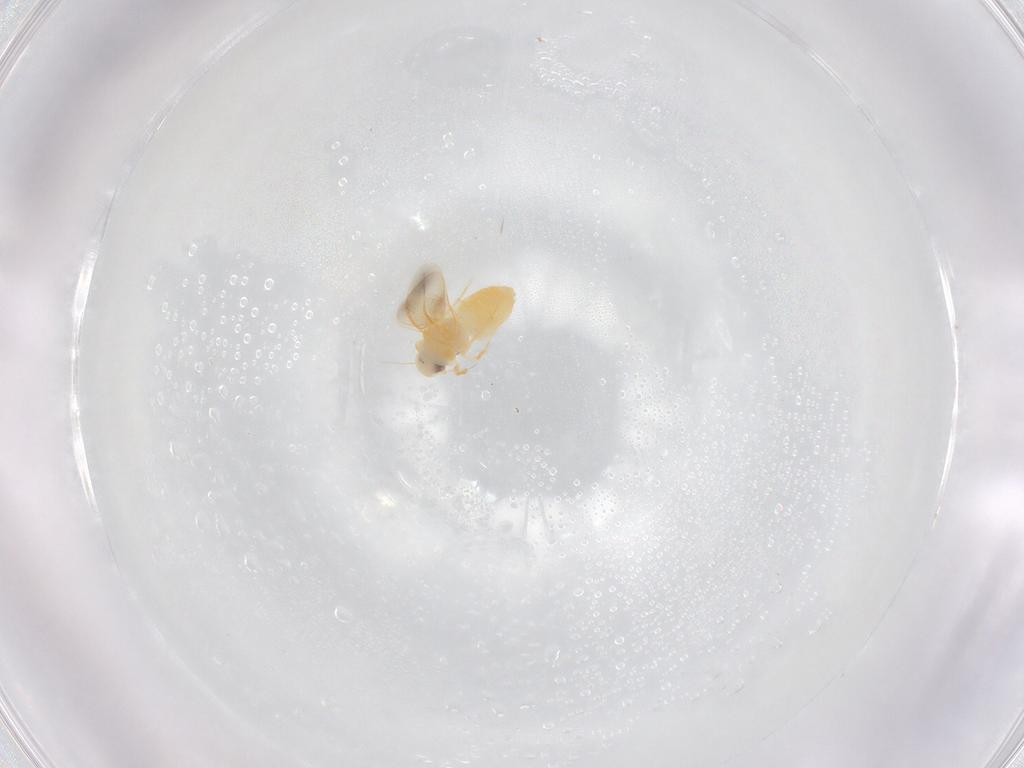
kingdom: Animalia
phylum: Arthropoda
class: Insecta
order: Hemiptera
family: Aleyrodidae
